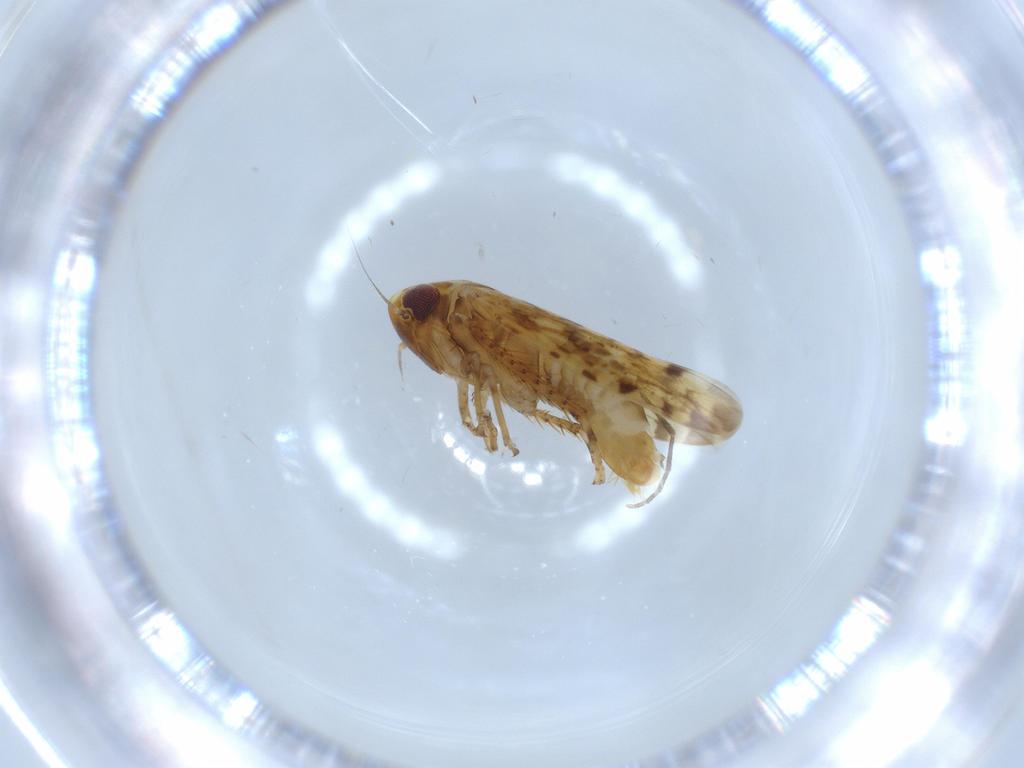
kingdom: Animalia
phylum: Arthropoda
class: Insecta
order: Hemiptera
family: Cicadellidae
